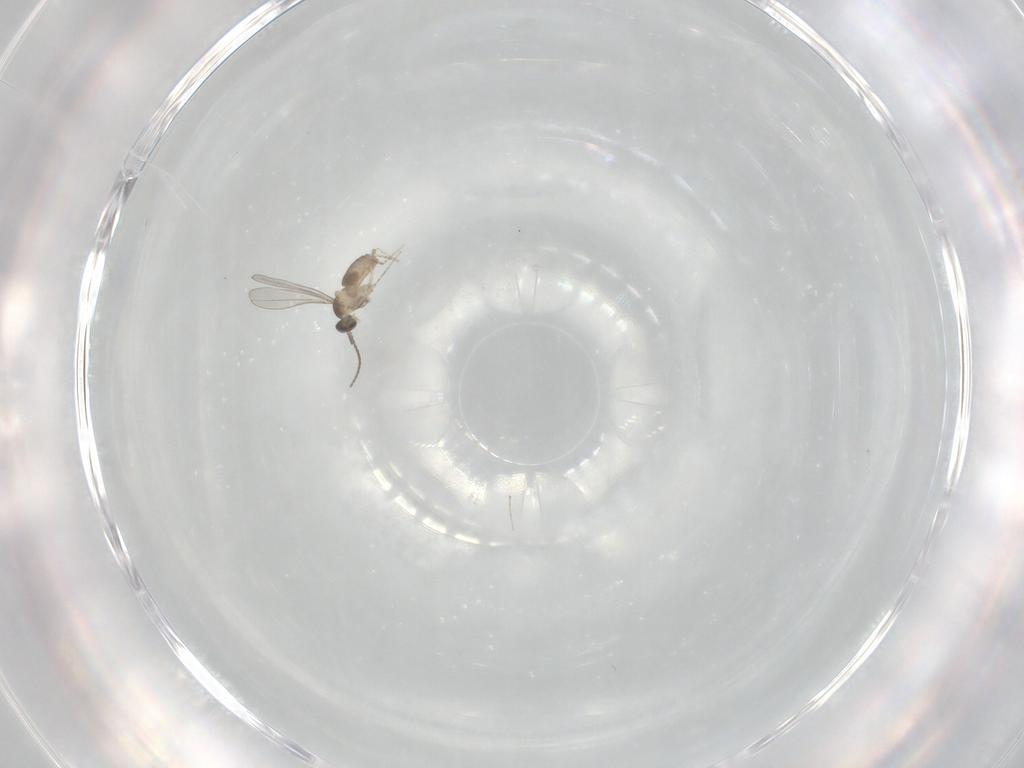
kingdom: Animalia
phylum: Arthropoda
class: Insecta
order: Diptera
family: Cecidomyiidae
